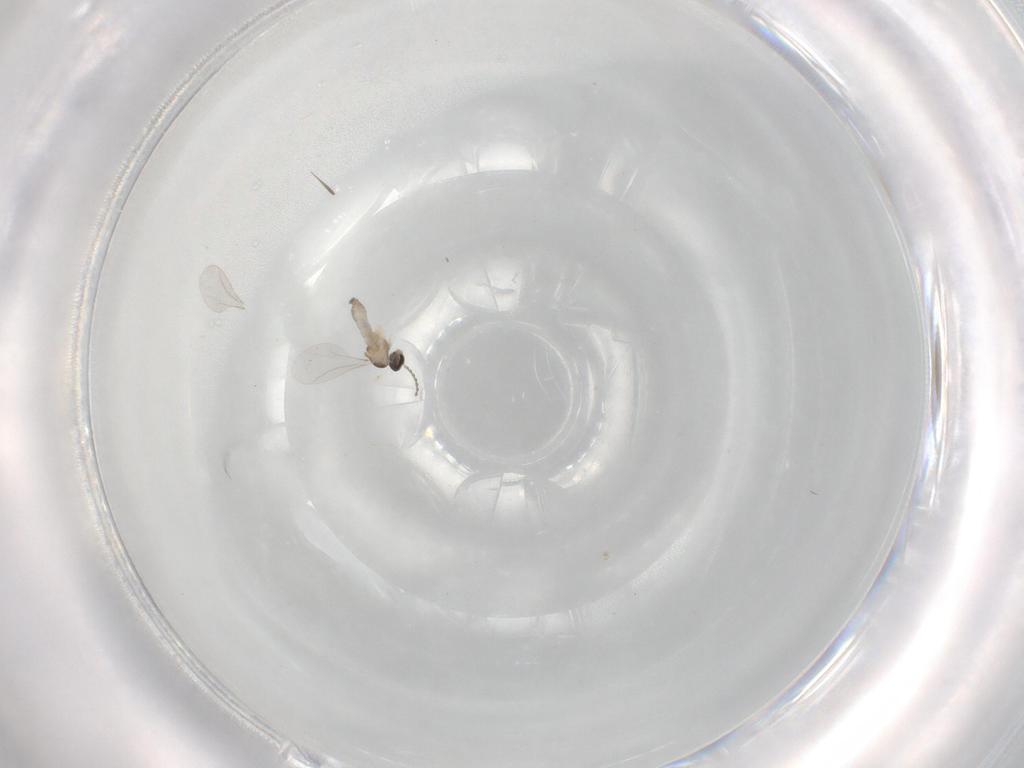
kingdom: Animalia
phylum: Arthropoda
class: Insecta
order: Diptera
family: Cecidomyiidae
